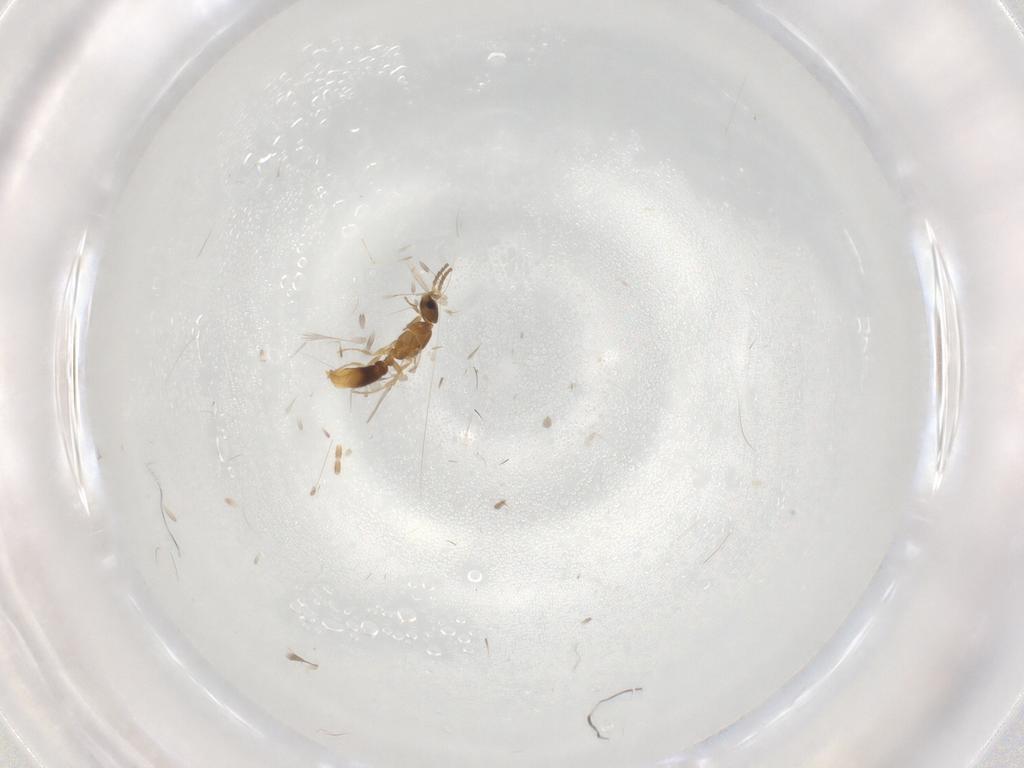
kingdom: Animalia
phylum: Arthropoda
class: Insecta
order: Hymenoptera
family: Formicidae
